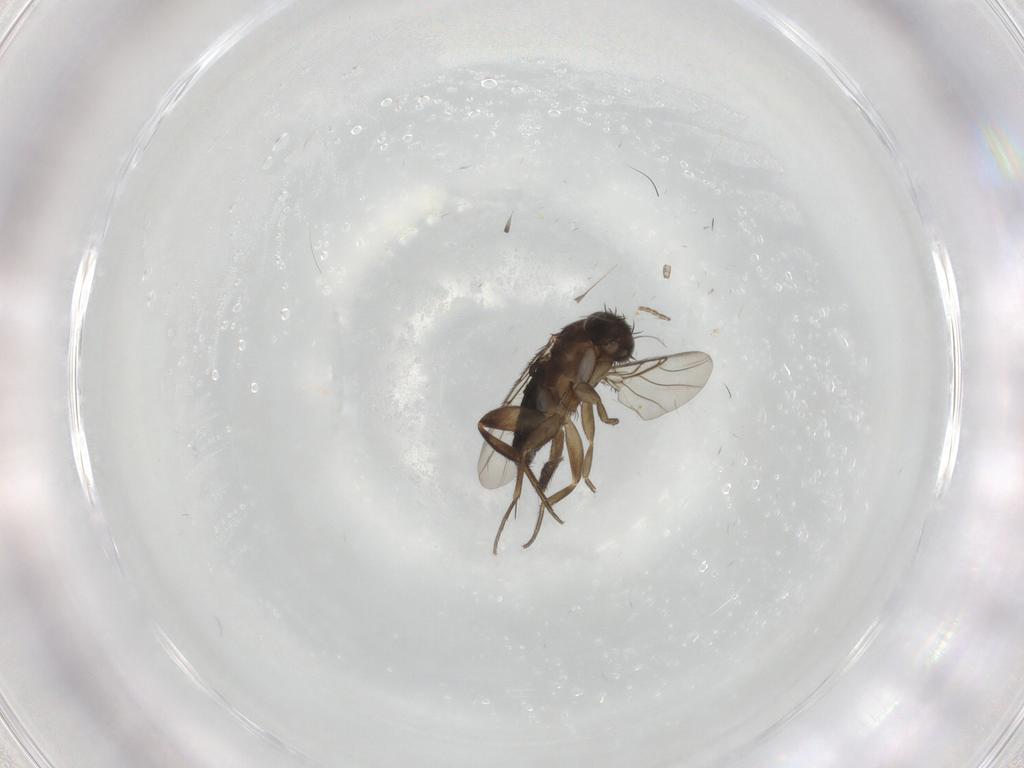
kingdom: Animalia
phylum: Arthropoda
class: Insecta
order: Diptera
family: Phoridae
